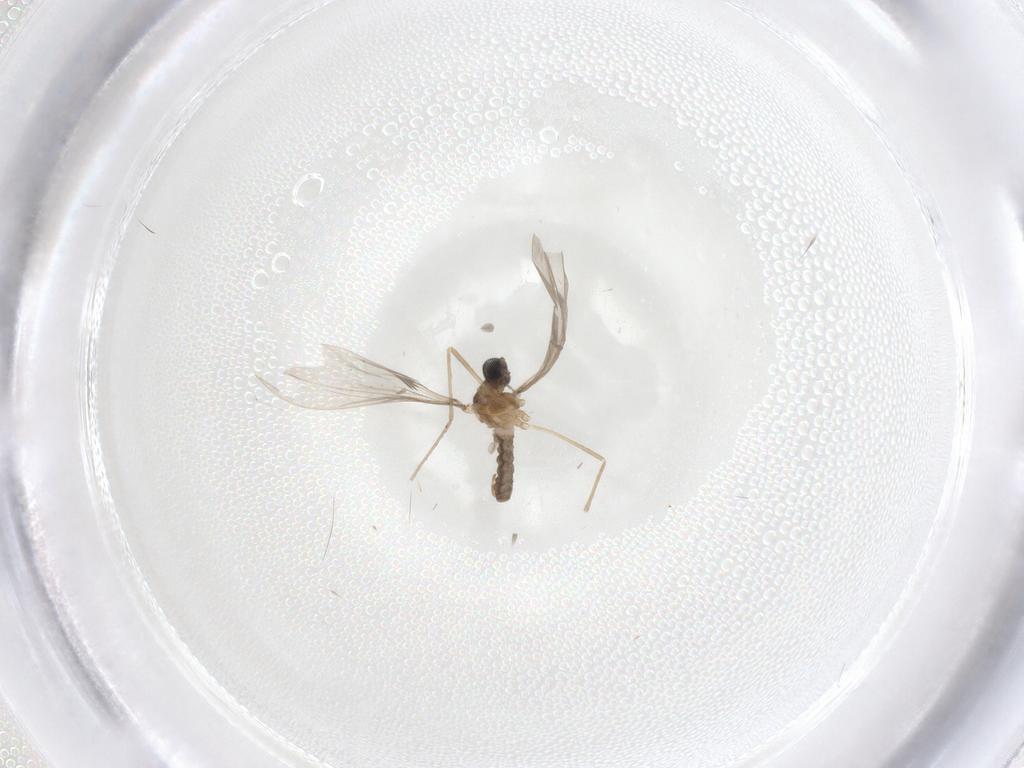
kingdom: Animalia
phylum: Arthropoda
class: Insecta
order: Diptera
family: Cecidomyiidae
